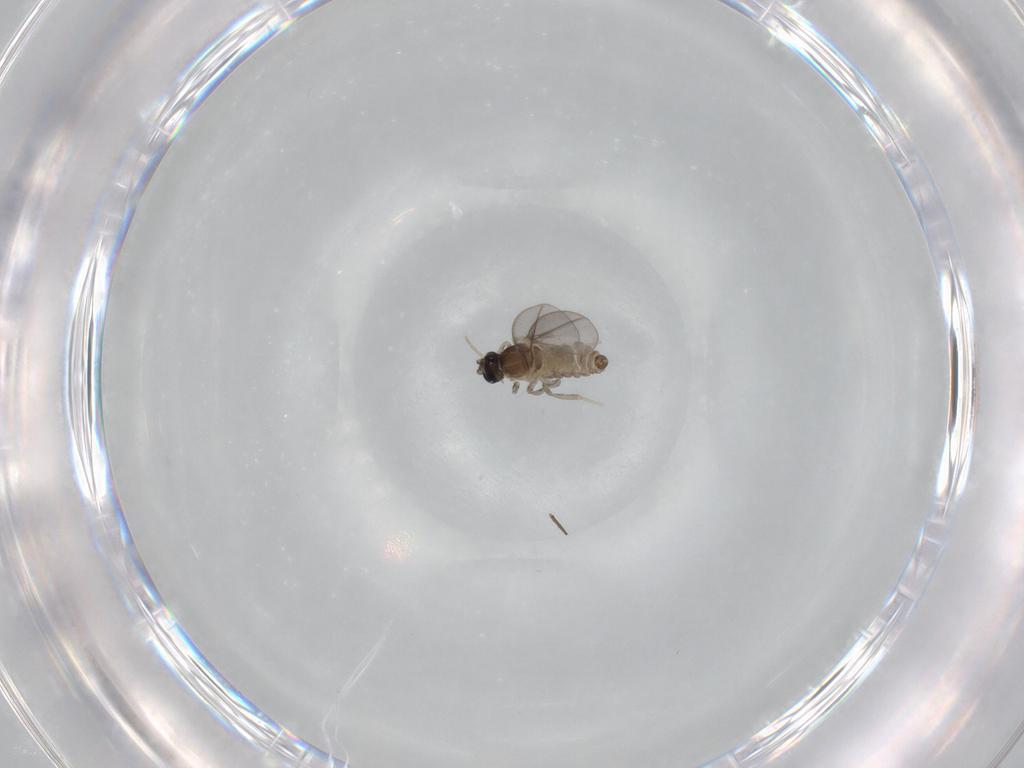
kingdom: Animalia
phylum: Arthropoda
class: Insecta
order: Diptera
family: Cecidomyiidae
